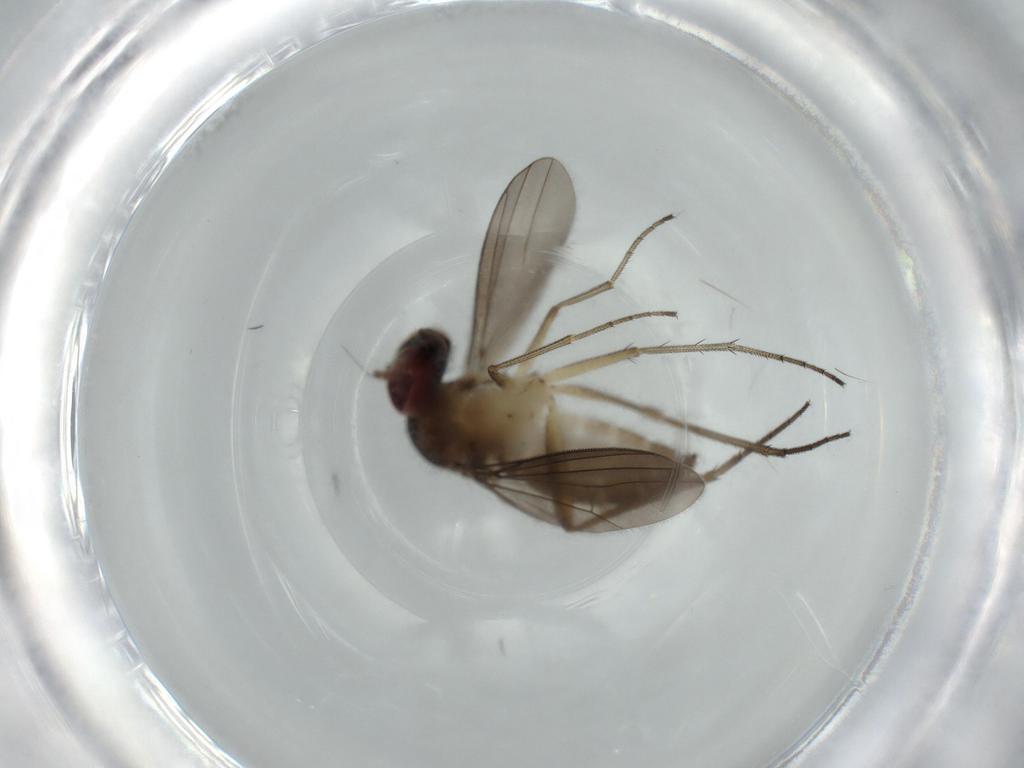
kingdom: Animalia
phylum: Arthropoda
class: Insecta
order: Diptera
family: Dolichopodidae
